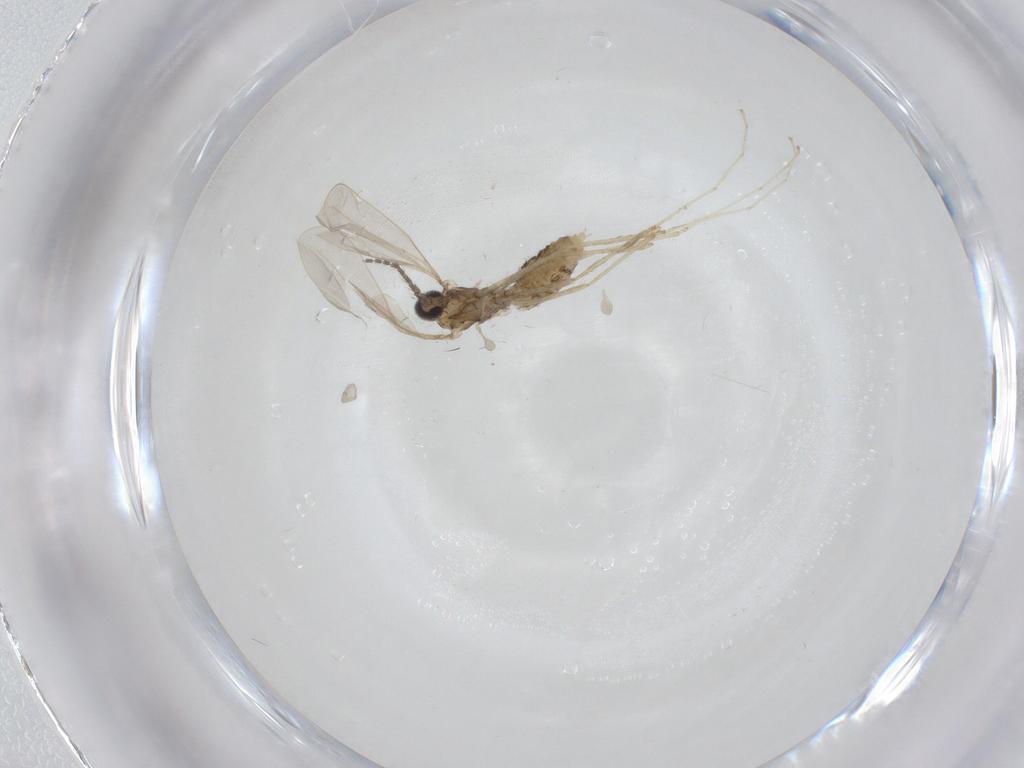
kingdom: Animalia
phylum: Arthropoda
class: Insecta
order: Diptera
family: Cecidomyiidae
